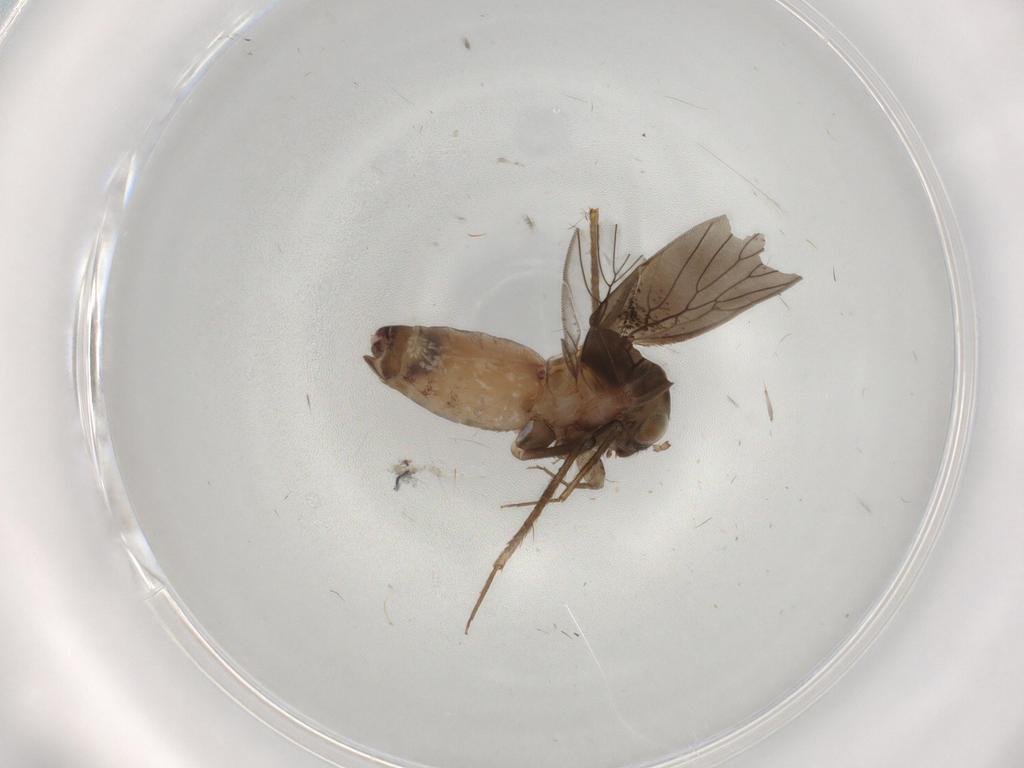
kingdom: Animalia
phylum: Arthropoda
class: Insecta
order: Psocodea
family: Lepidopsocidae
